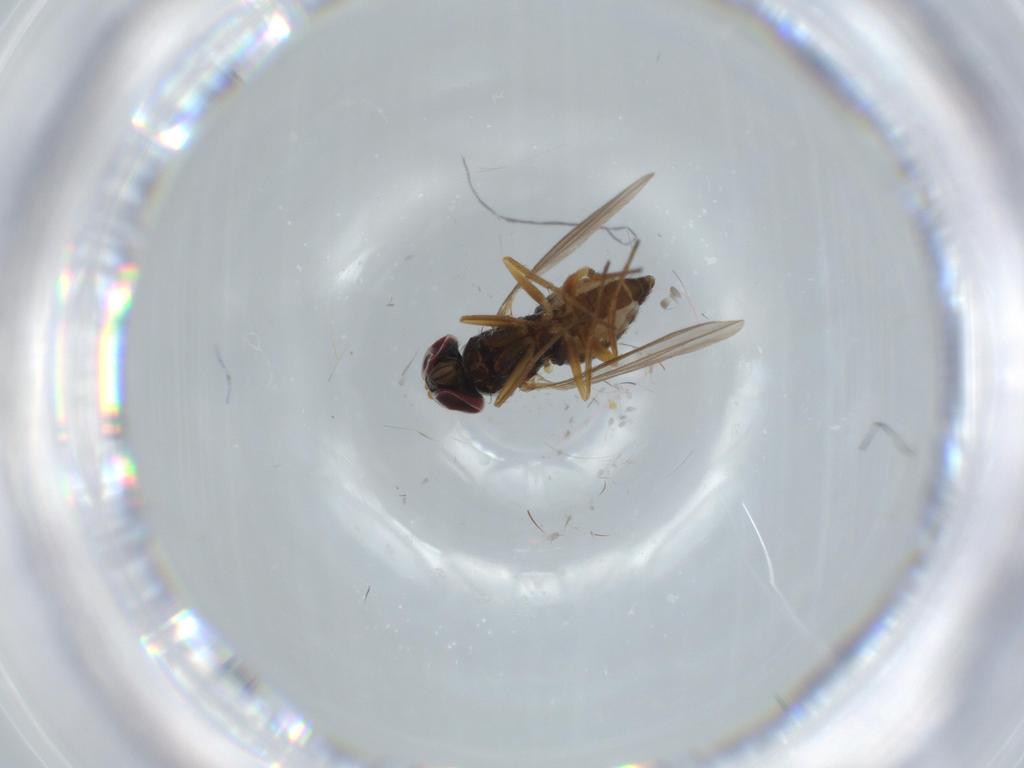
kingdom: Animalia
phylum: Arthropoda
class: Insecta
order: Diptera
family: Dolichopodidae
